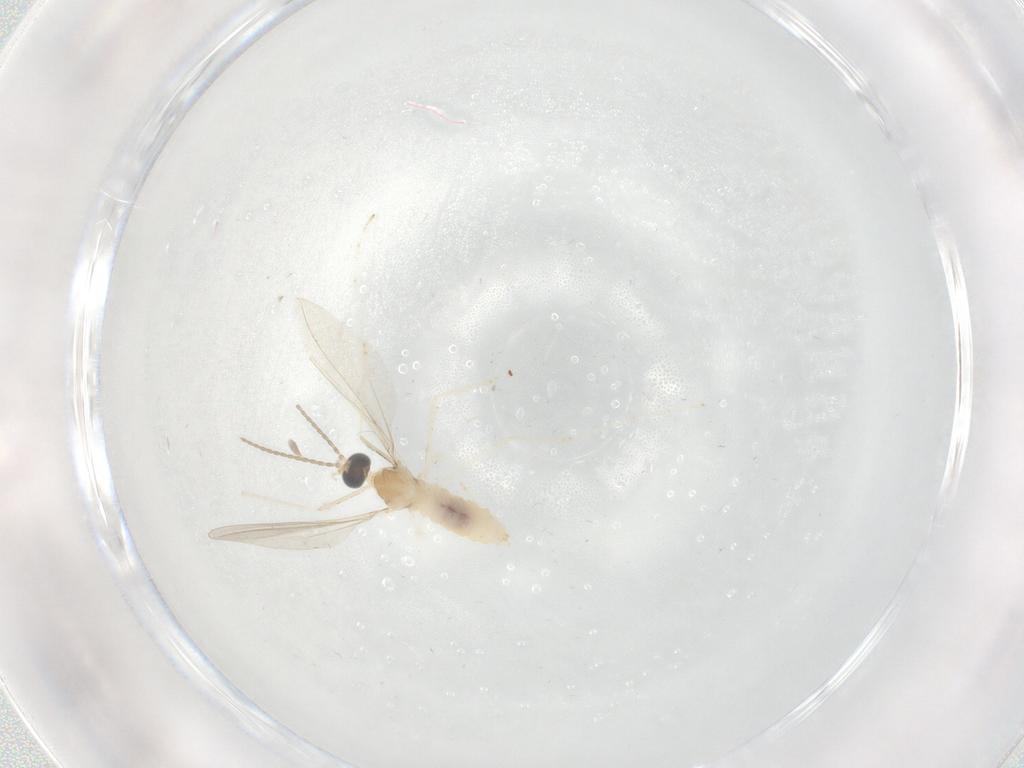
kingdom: Animalia
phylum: Arthropoda
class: Insecta
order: Diptera
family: Cecidomyiidae
